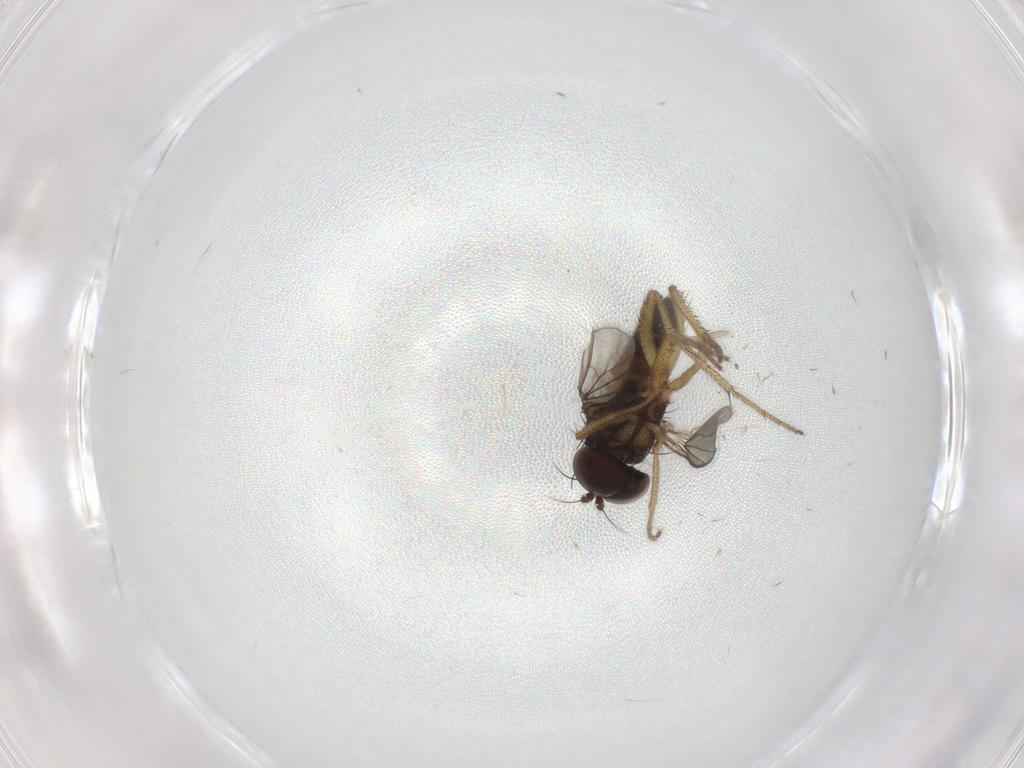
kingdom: Animalia
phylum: Arthropoda
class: Insecta
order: Diptera
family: Dolichopodidae
